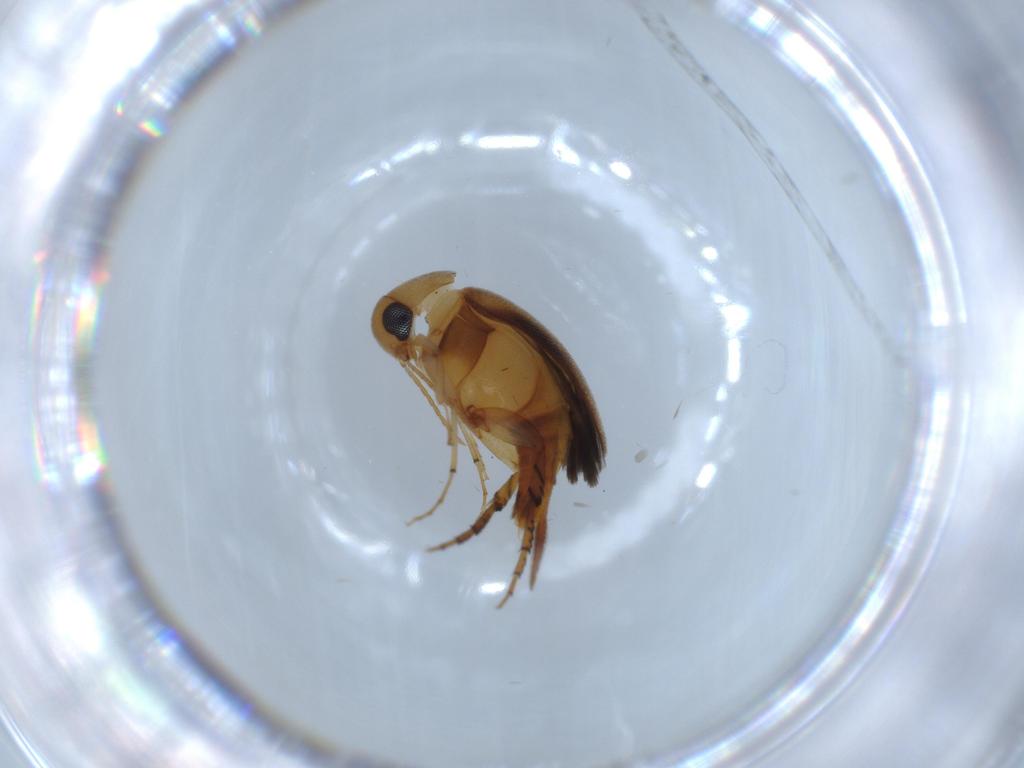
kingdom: Animalia
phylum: Arthropoda
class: Insecta
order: Coleoptera
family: Mordellidae
